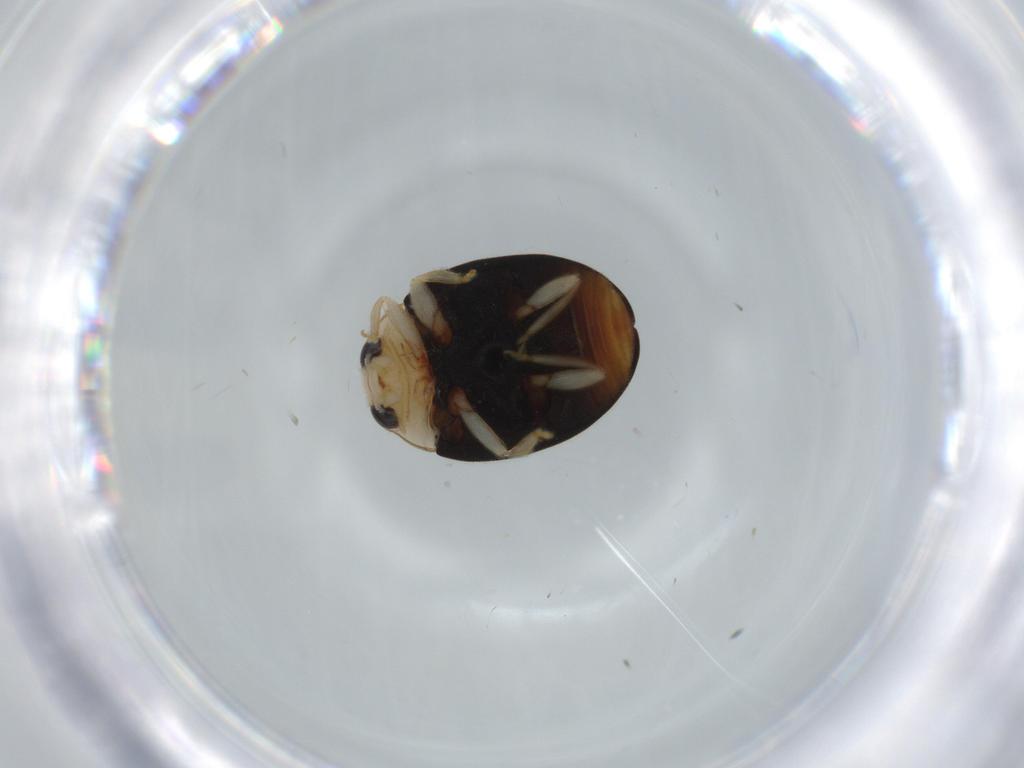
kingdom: Animalia
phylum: Arthropoda
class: Insecta
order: Coleoptera
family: Coccinellidae
